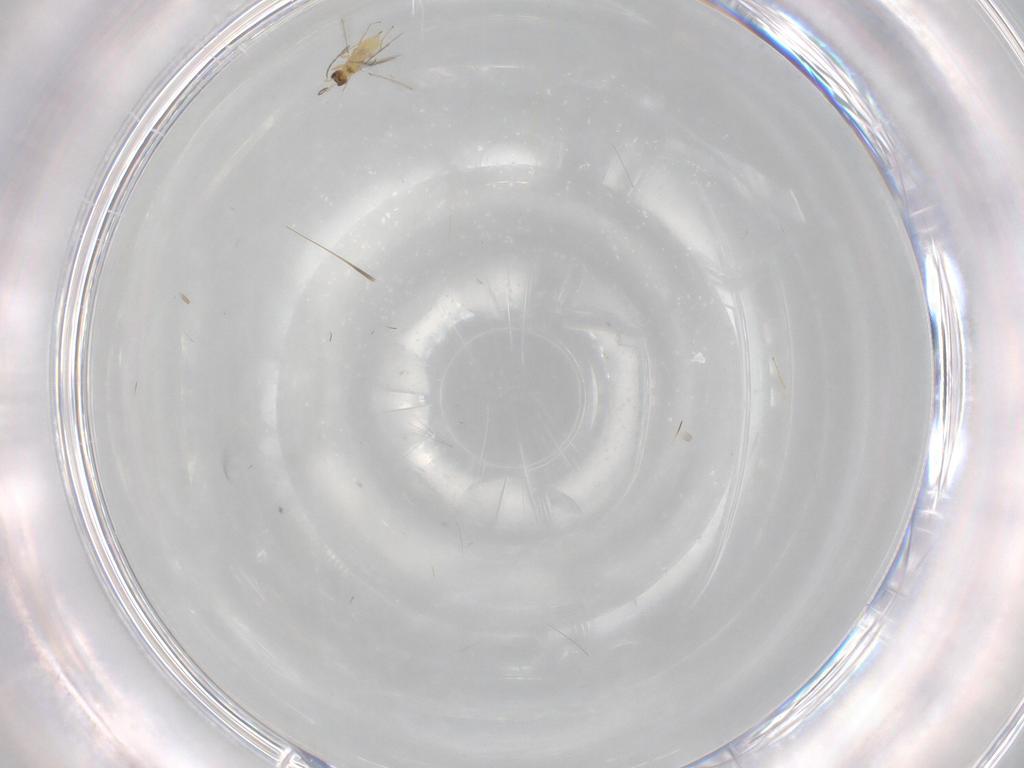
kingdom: Animalia
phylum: Arthropoda
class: Insecta
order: Hymenoptera
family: Mymaridae
